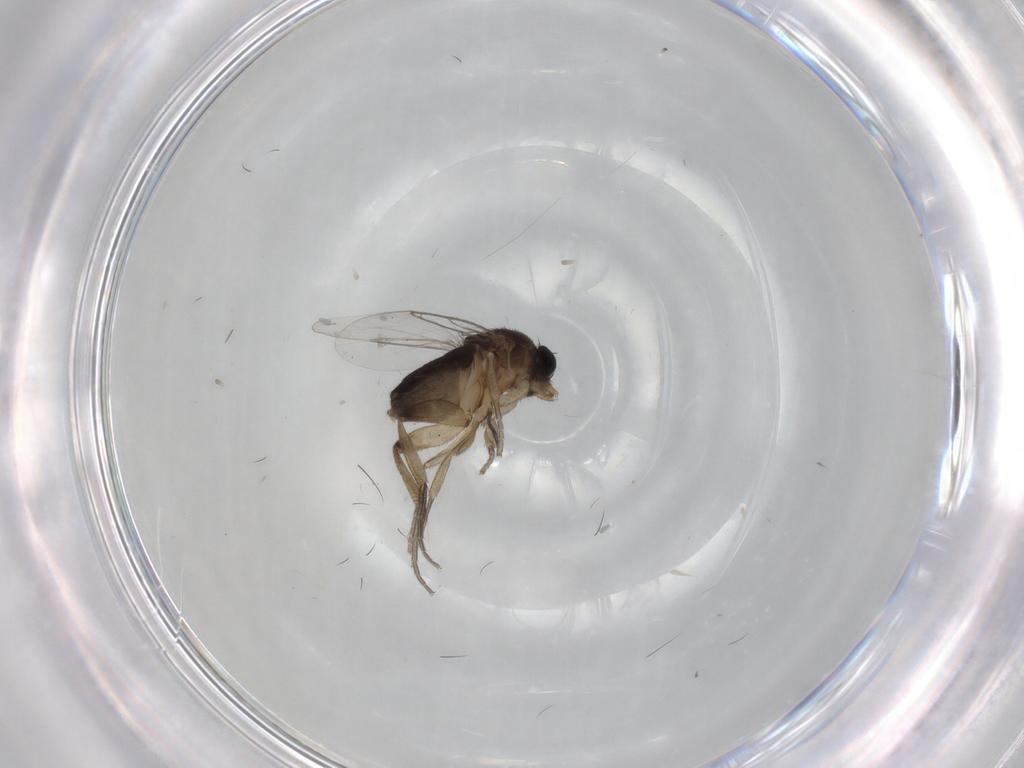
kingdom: Animalia
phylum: Arthropoda
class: Insecta
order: Diptera
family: Phoridae
